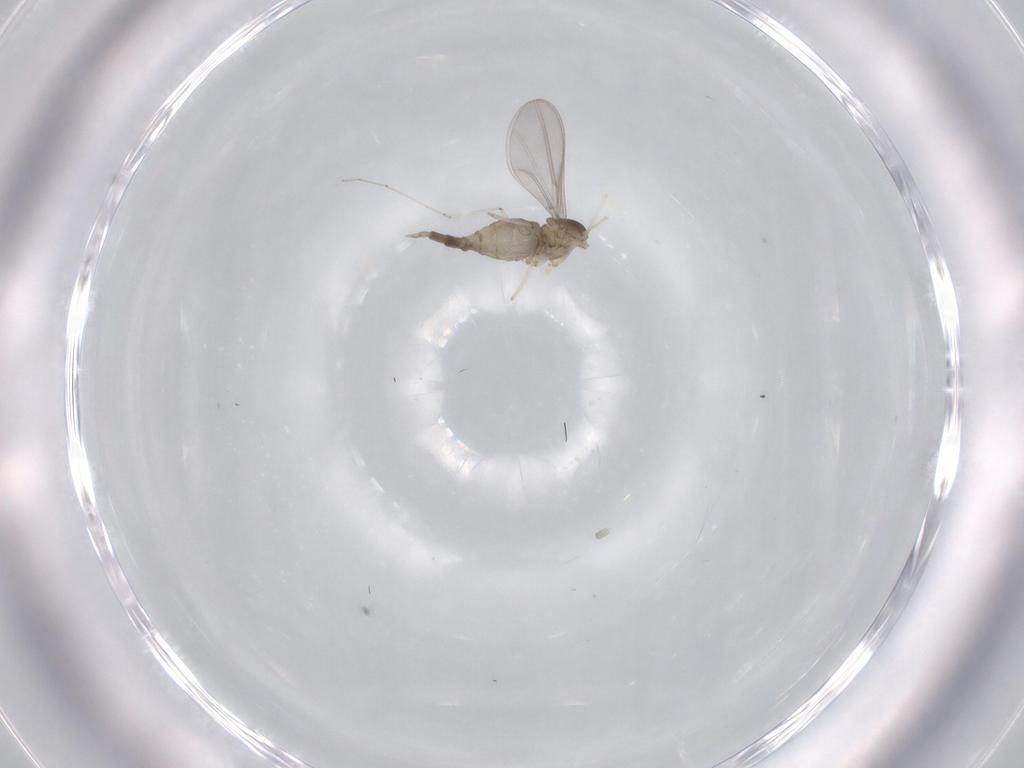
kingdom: Animalia
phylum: Arthropoda
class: Insecta
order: Diptera
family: Cecidomyiidae
